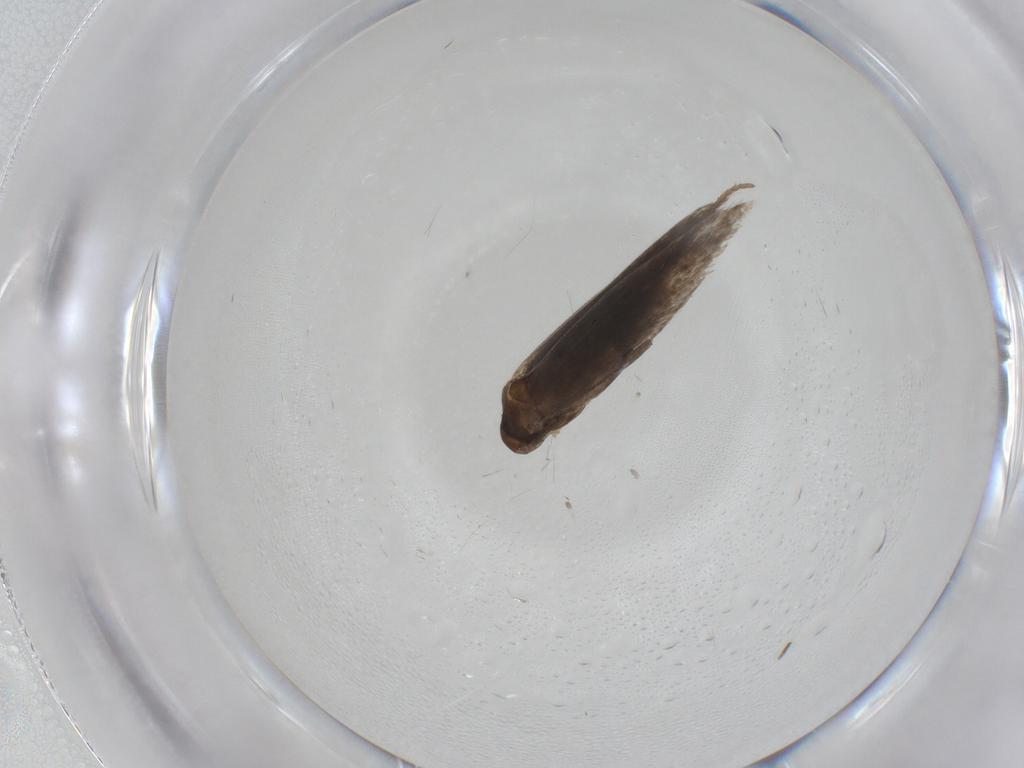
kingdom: Animalia
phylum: Arthropoda
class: Insecta
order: Lepidoptera
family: Elachistidae
